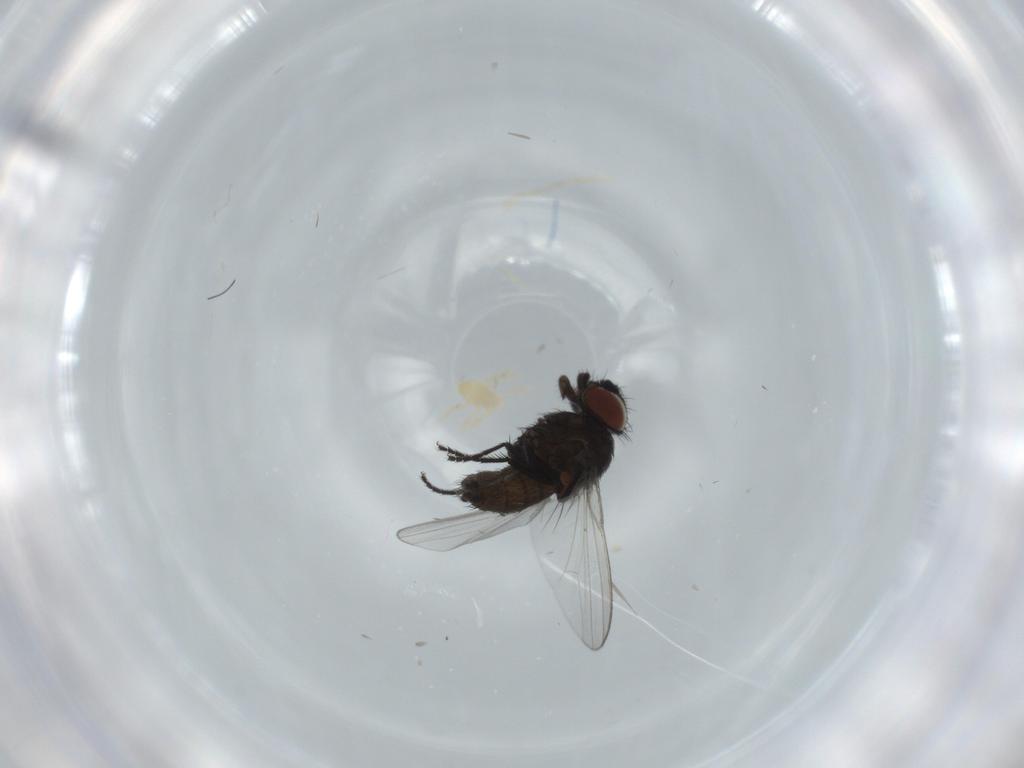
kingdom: Animalia
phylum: Arthropoda
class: Insecta
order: Diptera
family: Milichiidae
